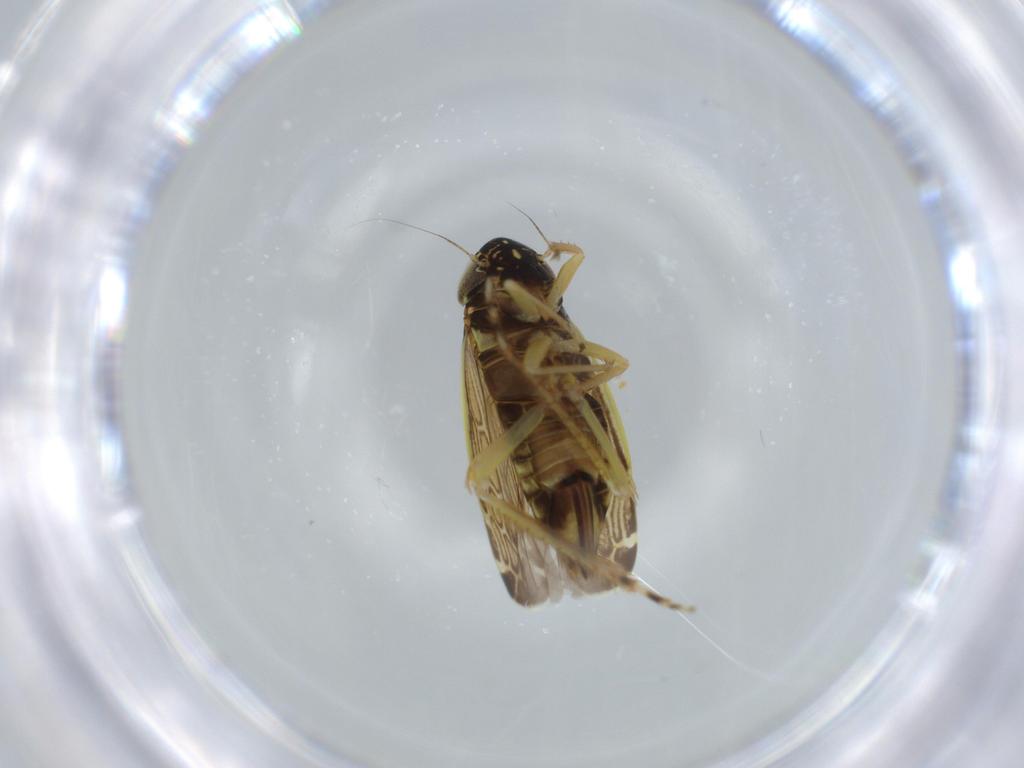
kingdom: Animalia
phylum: Arthropoda
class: Insecta
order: Hemiptera
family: Cicadellidae
